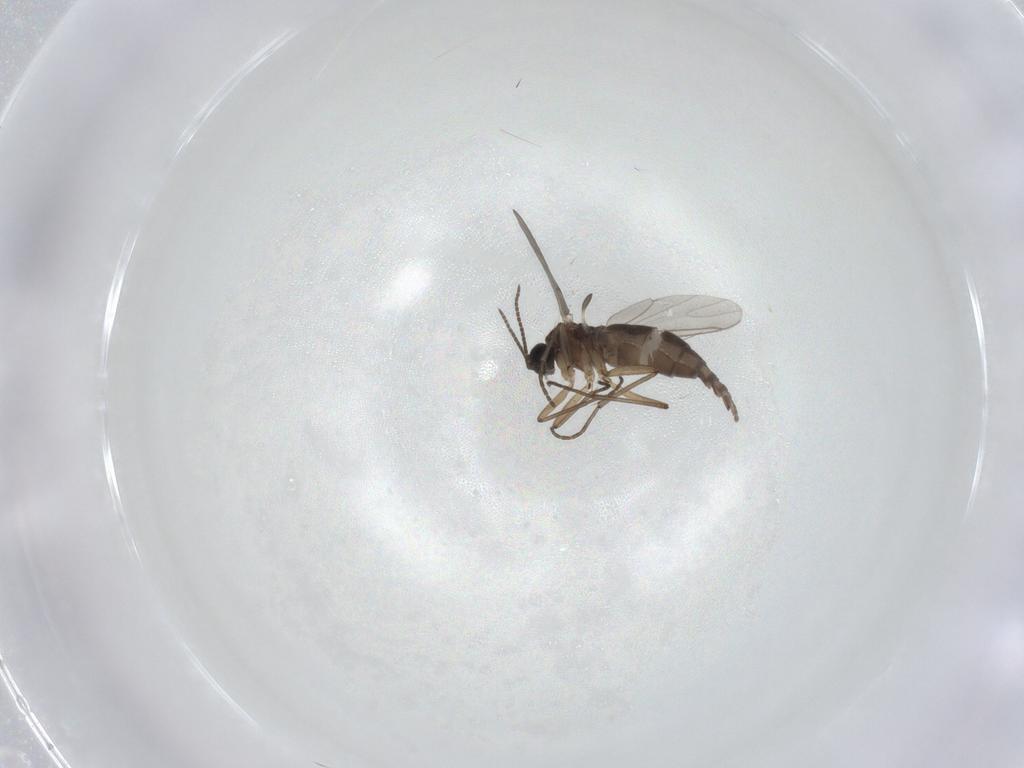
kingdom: Animalia
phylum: Arthropoda
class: Insecta
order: Diptera
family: Sciaridae
